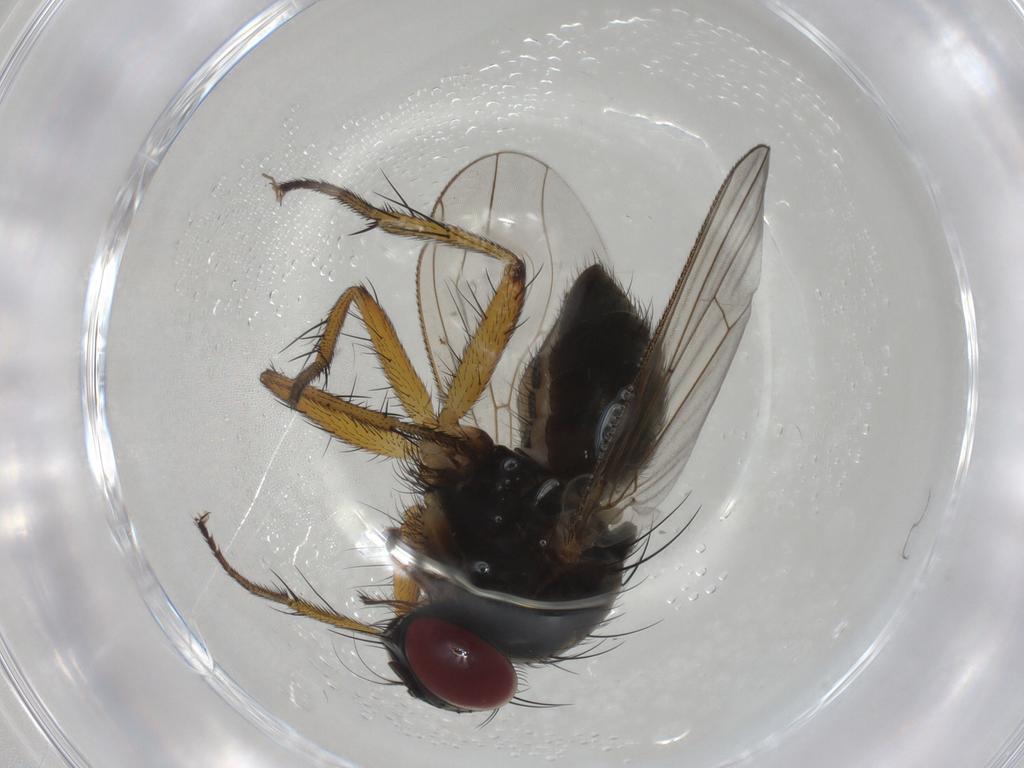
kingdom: Animalia
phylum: Arthropoda
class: Insecta
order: Diptera
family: Muscidae
